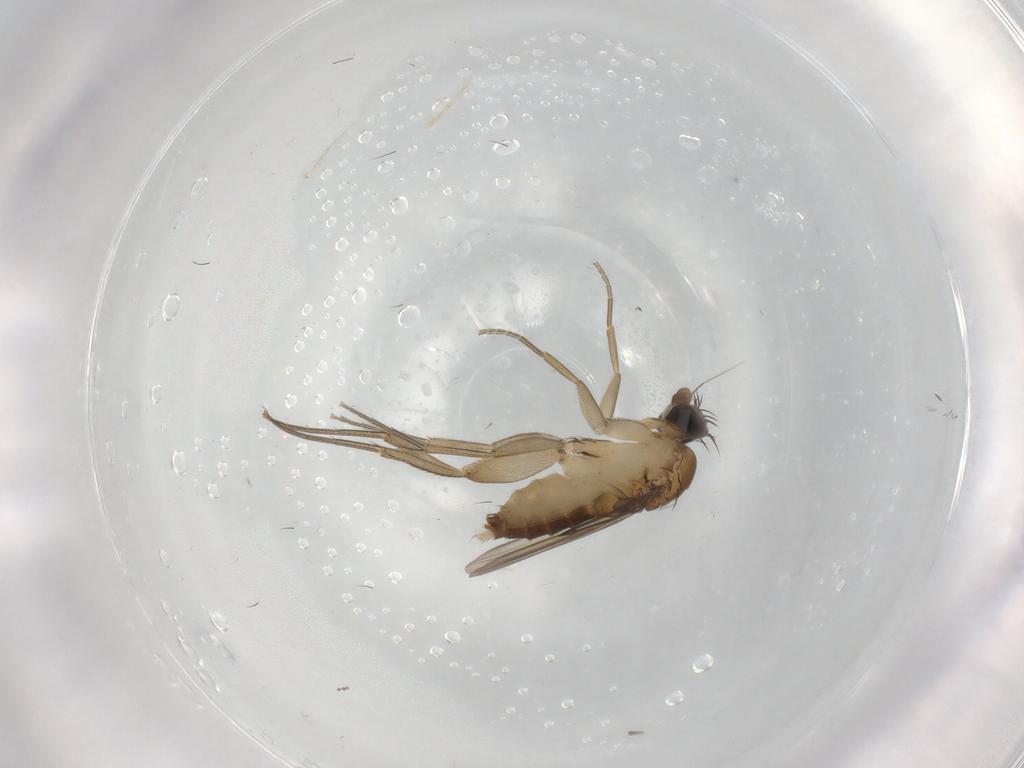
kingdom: Animalia
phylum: Arthropoda
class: Insecta
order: Diptera
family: Phoridae
